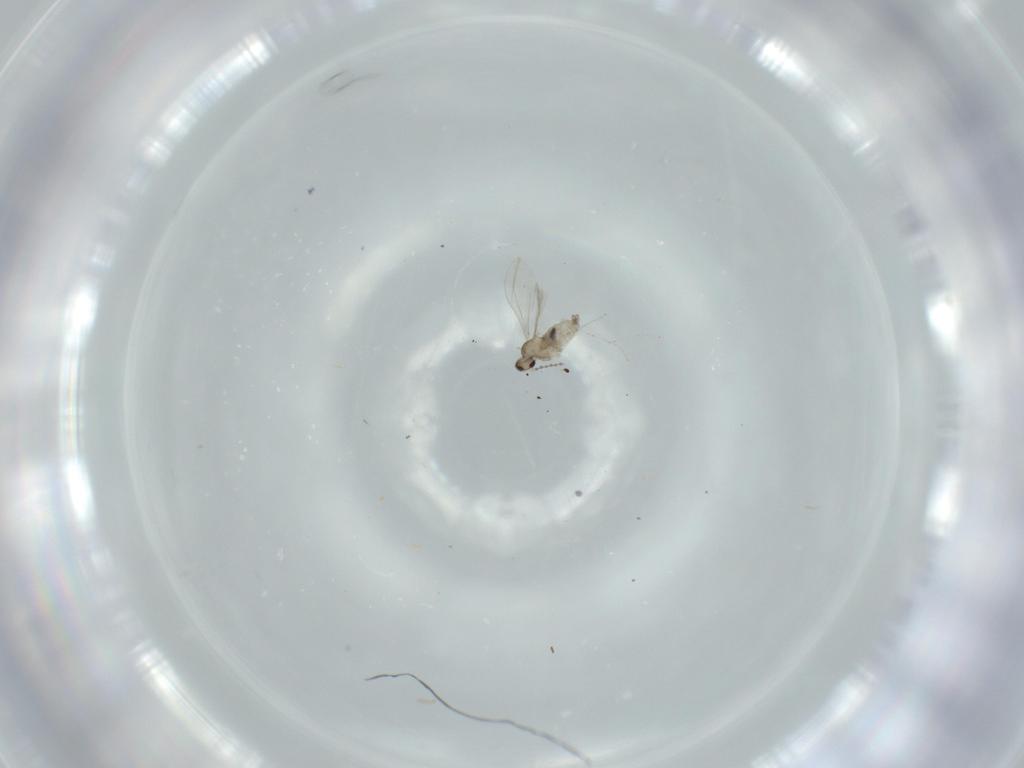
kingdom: Animalia
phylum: Arthropoda
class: Insecta
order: Diptera
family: Cecidomyiidae
